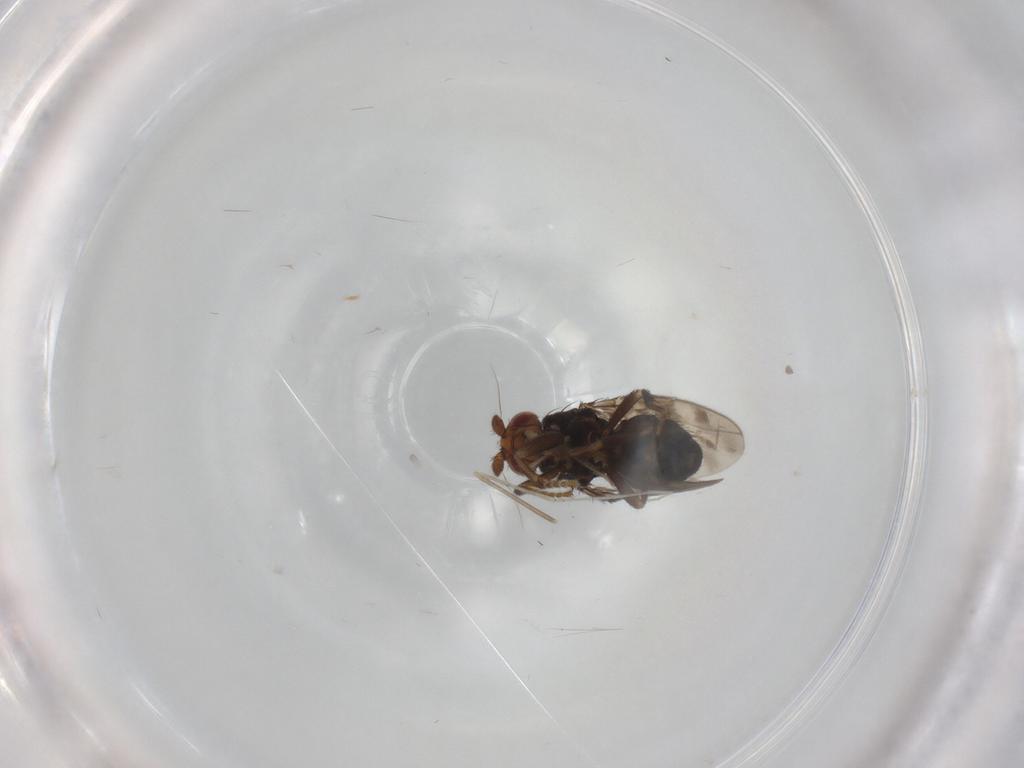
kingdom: Animalia
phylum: Arthropoda
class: Insecta
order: Diptera
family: Sphaeroceridae
